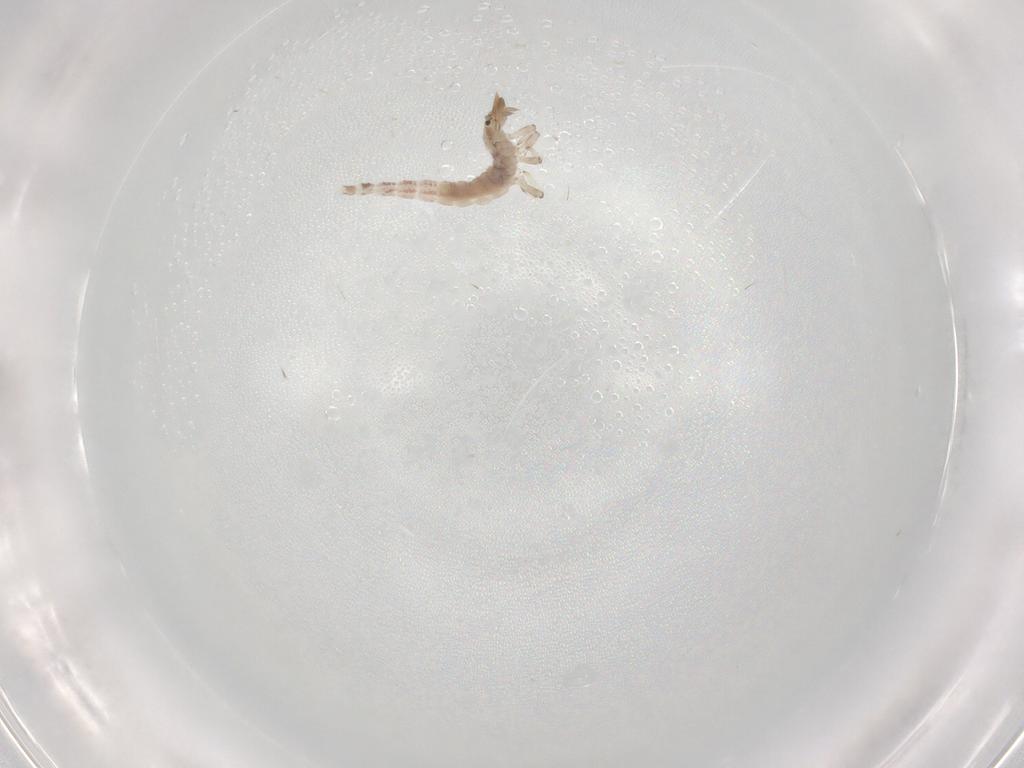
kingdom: Animalia
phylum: Arthropoda
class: Insecta
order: Neuroptera
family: Hemerobiidae
